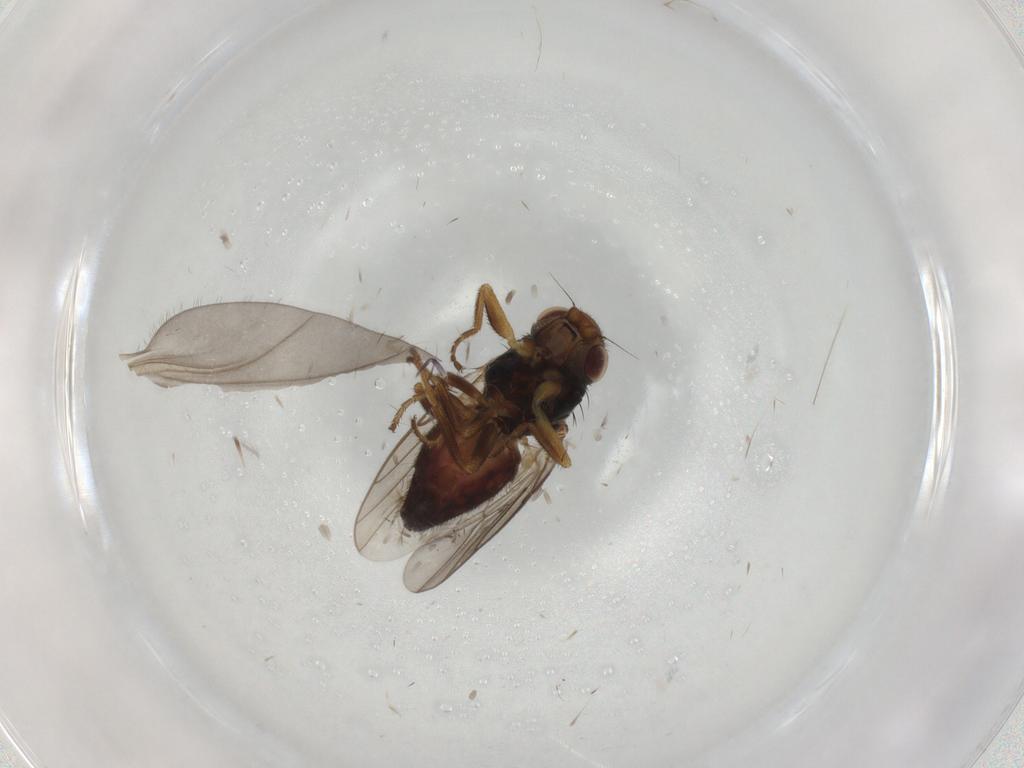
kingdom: Animalia
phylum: Arthropoda
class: Insecta
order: Diptera
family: Chloropidae
